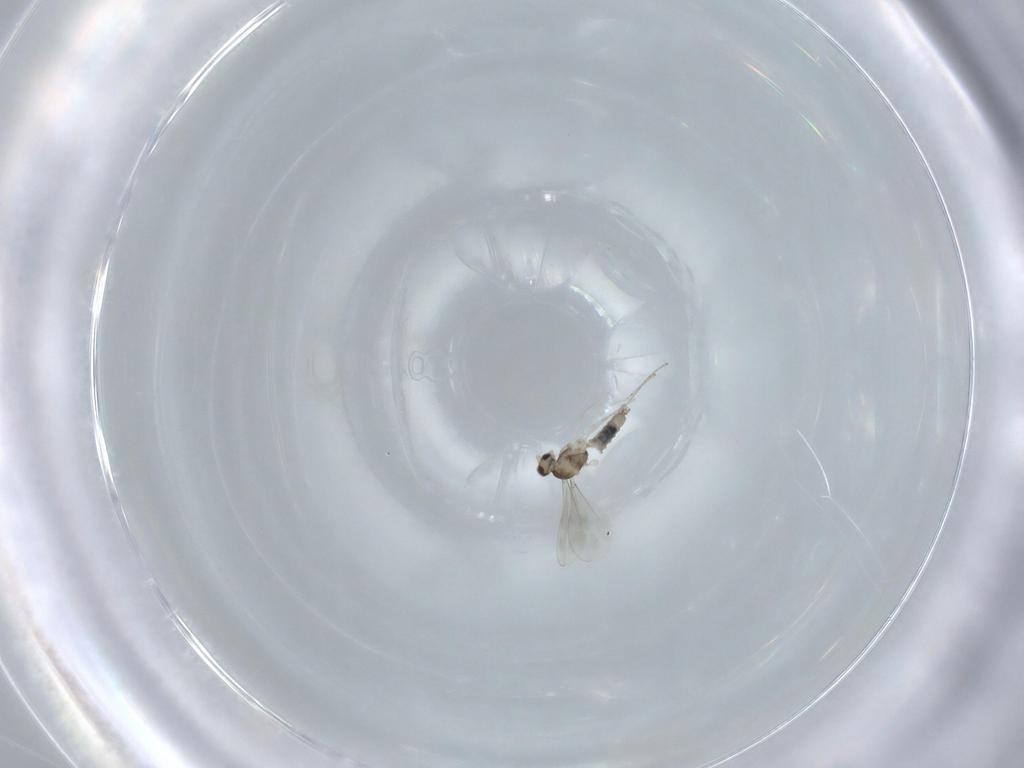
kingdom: Animalia
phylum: Arthropoda
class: Insecta
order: Diptera
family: Cecidomyiidae
